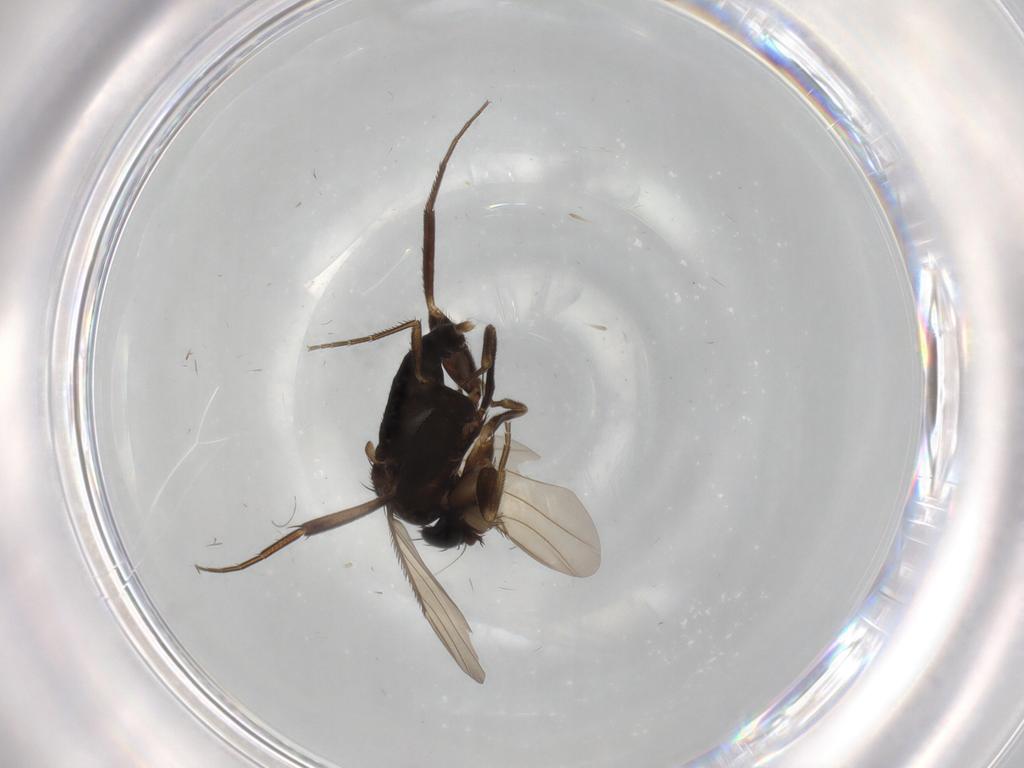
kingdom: Animalia
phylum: Arthropoda
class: Insecta
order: Diptera
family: Phoridae
